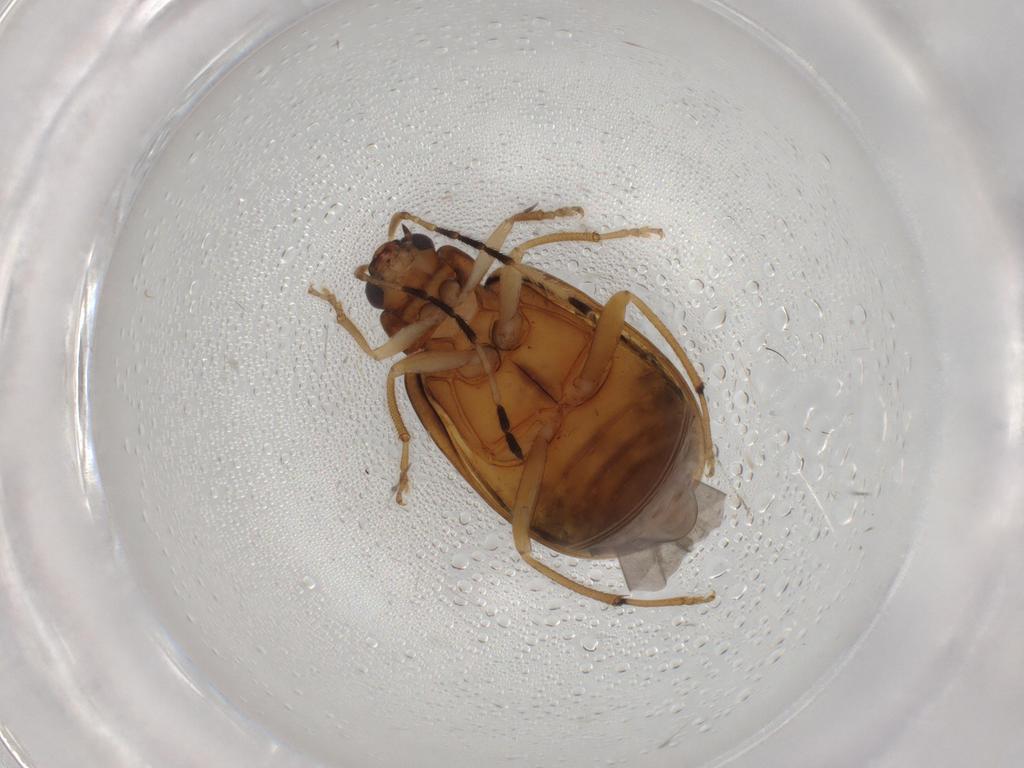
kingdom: Animalia
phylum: Arthropoda
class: Insecta
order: Coleoptera
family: Chrysomelidae
